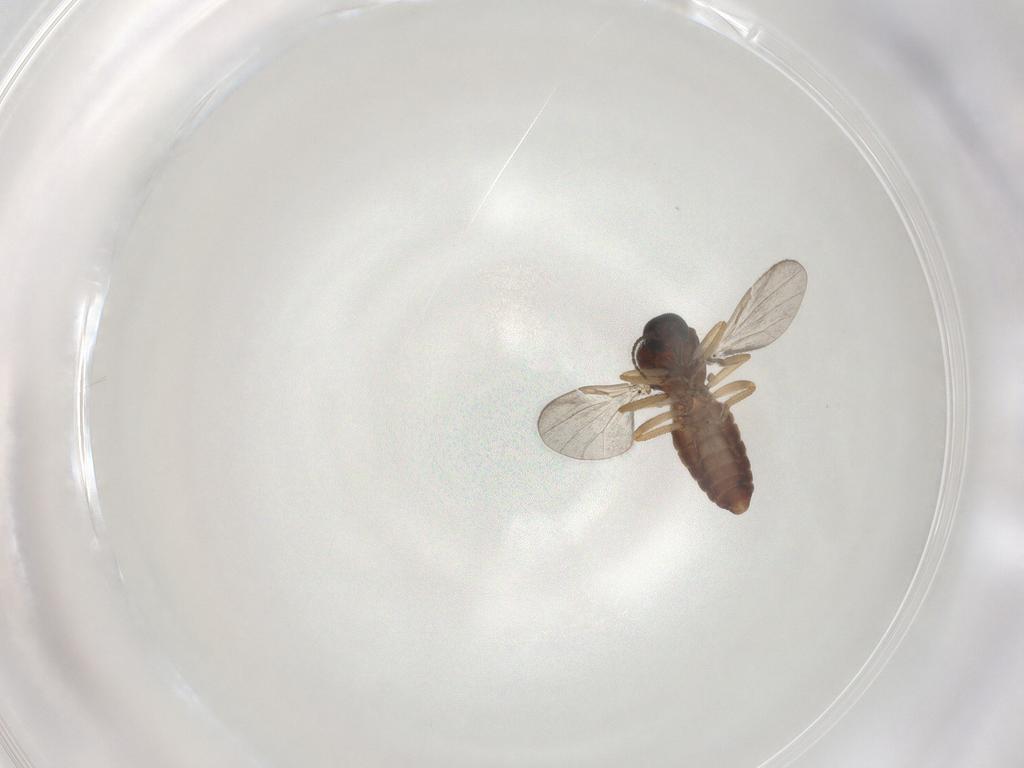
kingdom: Animalia
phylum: Arthropoda
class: Insecta
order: Diptera
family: Ceratopogonidae
